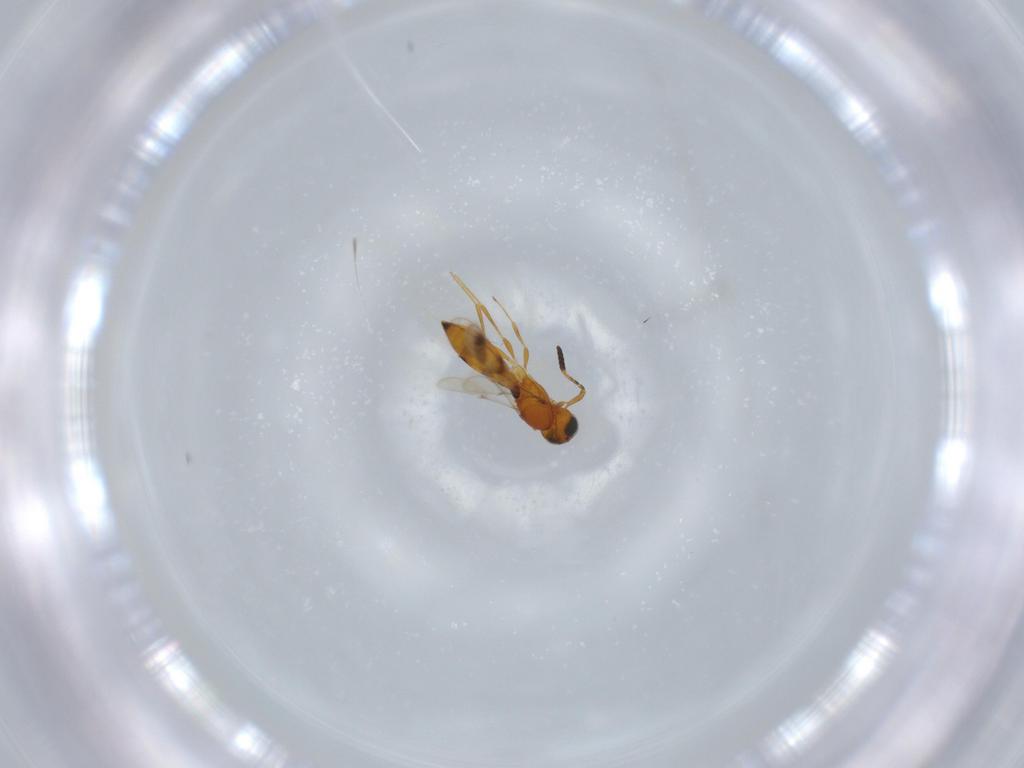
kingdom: Animalia
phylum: Arthropoda
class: Insecta
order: Hymenoptera
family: Scelionidae
